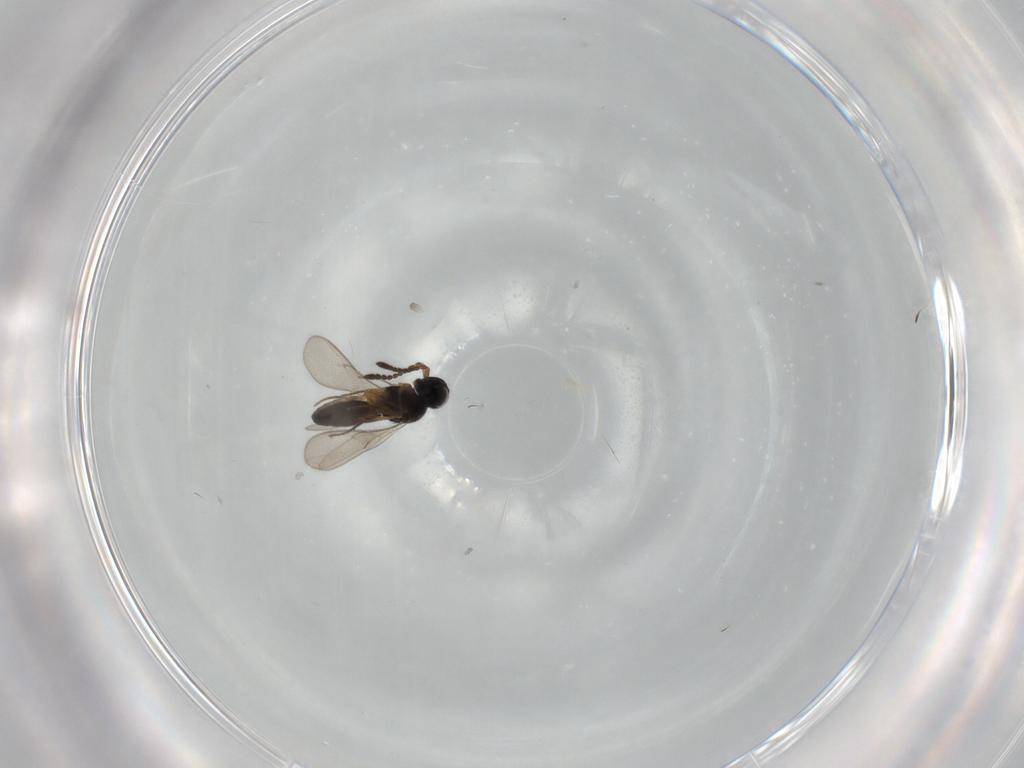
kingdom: Animalia
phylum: Arthropoda
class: Insecta
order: Hymenoptera
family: Scelionidae
